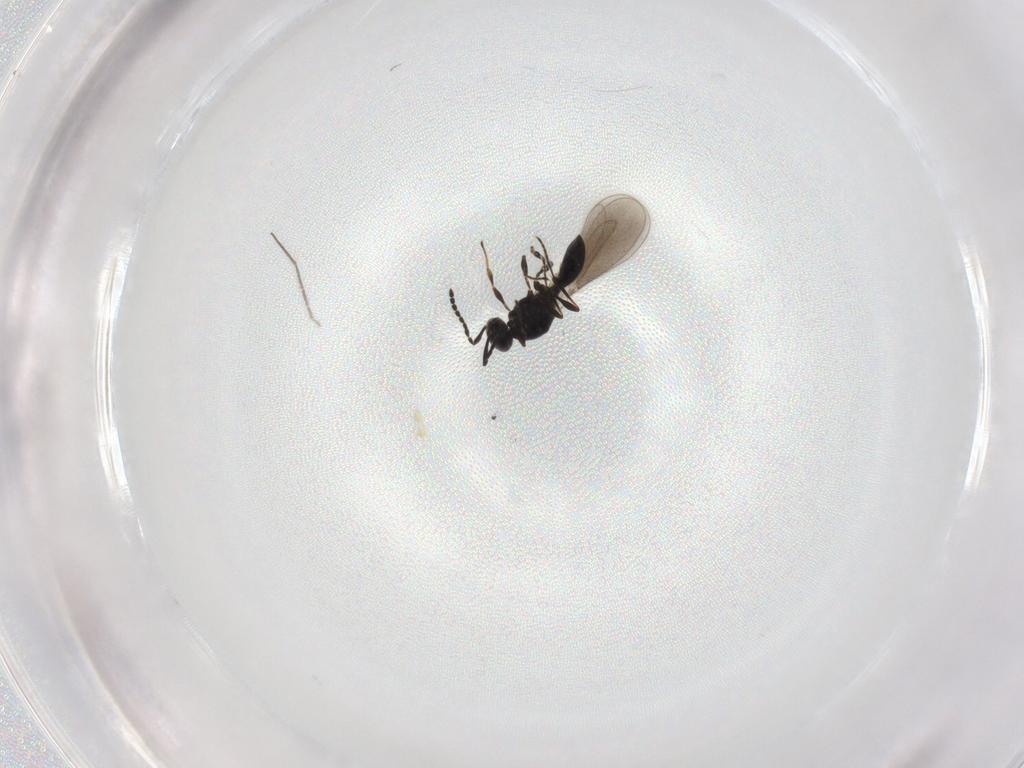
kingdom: Animalia
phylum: Arthropoda
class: Insecta
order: Hymenoptera
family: Platygastridae
